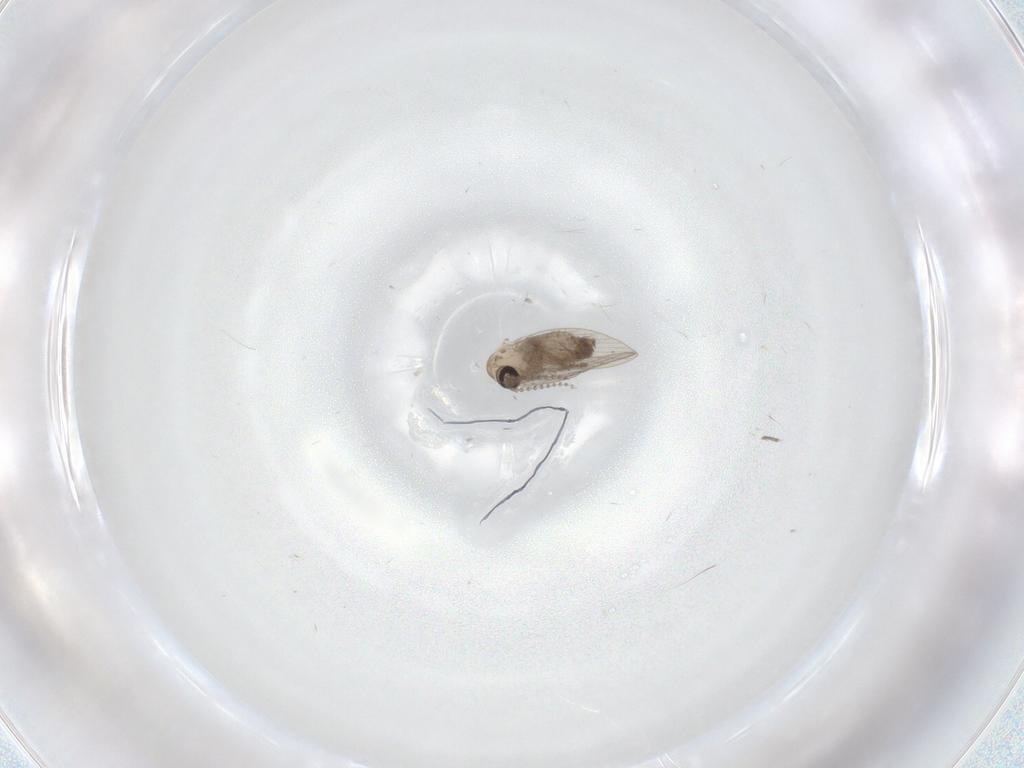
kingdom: Animalia
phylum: Arthropoda
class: Insecta
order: Diptera
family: Psychodidae
